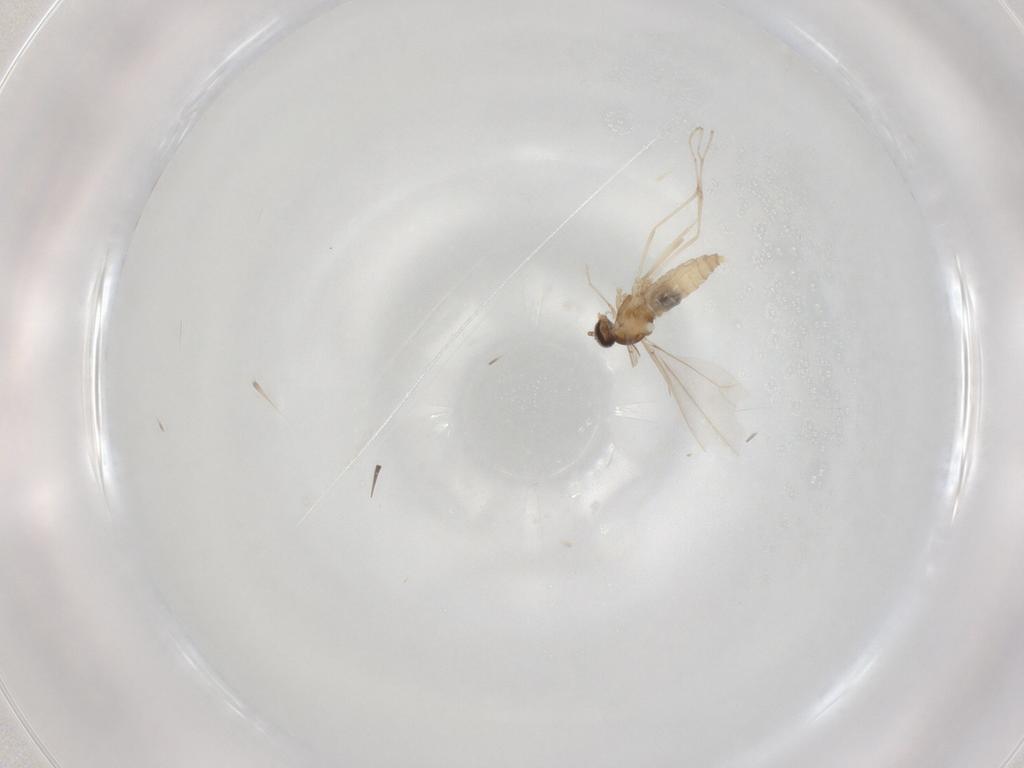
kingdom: Animalia
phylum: Arthropoda
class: Insecta
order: Diptera
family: Cecidomyiidae
